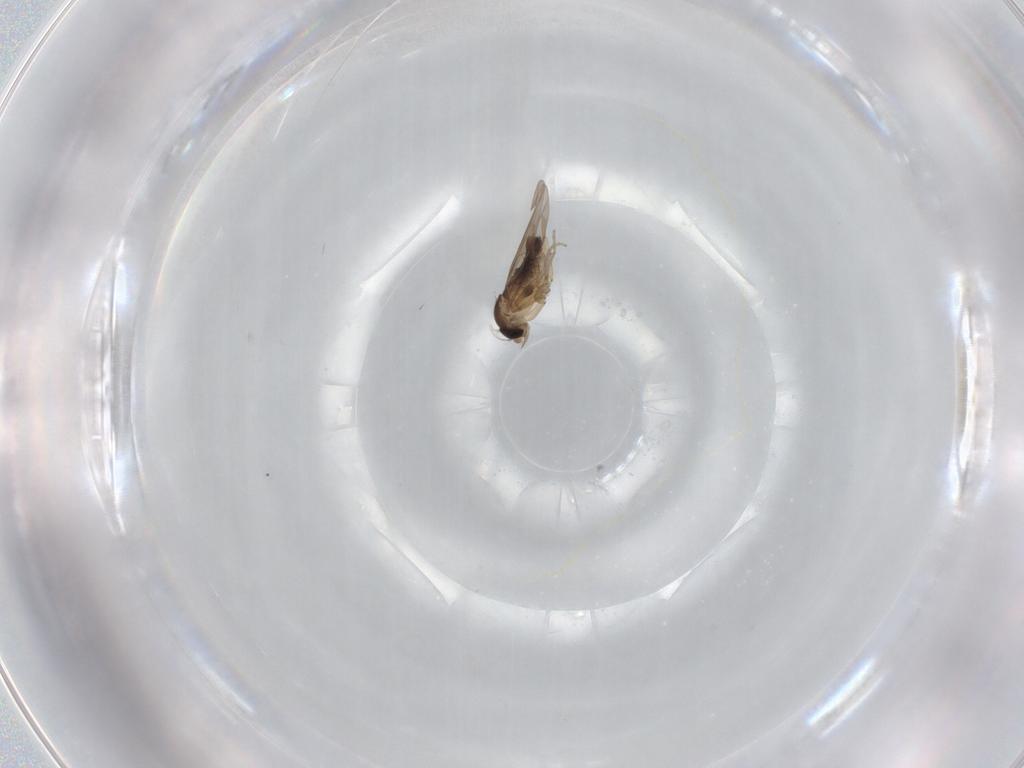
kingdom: Animalia
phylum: Arthropoda
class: Insecta
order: Diptera
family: Phoridae
